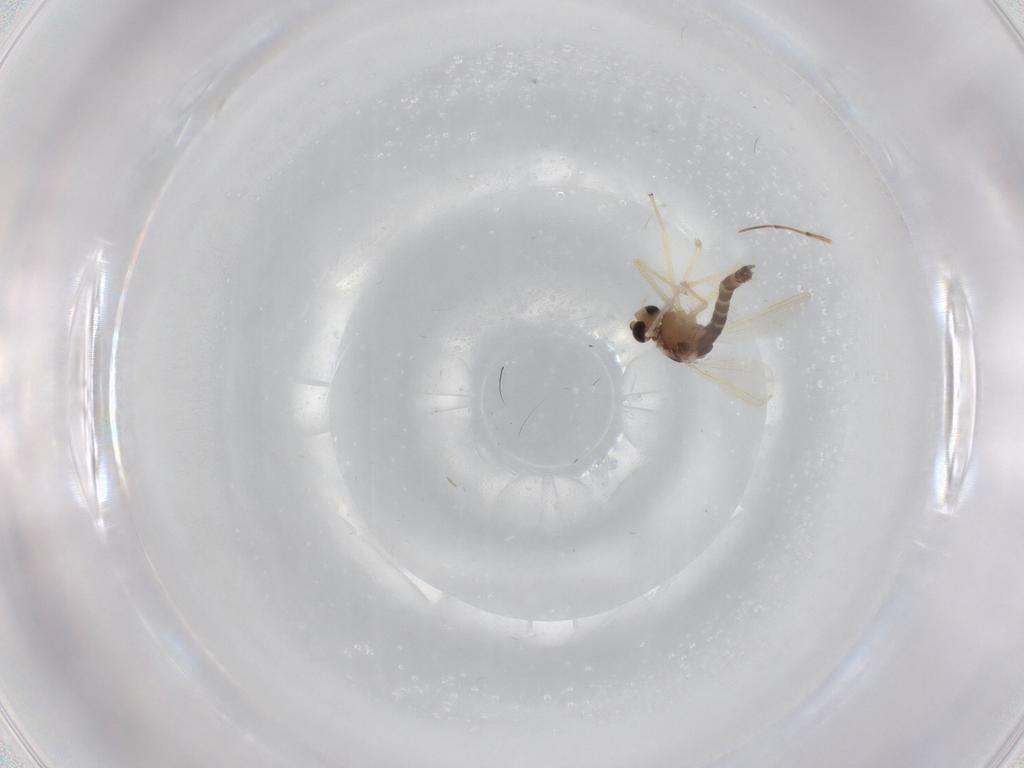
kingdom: Animalia
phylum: Arthropoda
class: Insecta
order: Diptera
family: Chironomidae
